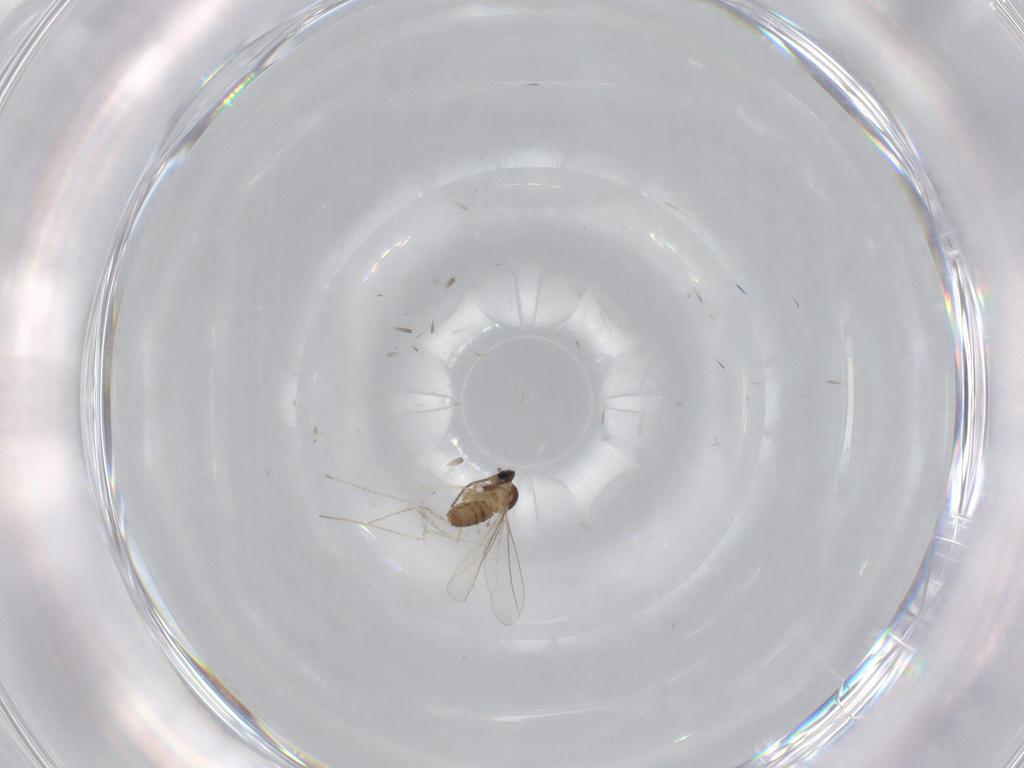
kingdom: Animalia
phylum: Arthropoda
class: Insecta
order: Diptera
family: Cecidomyiidae
